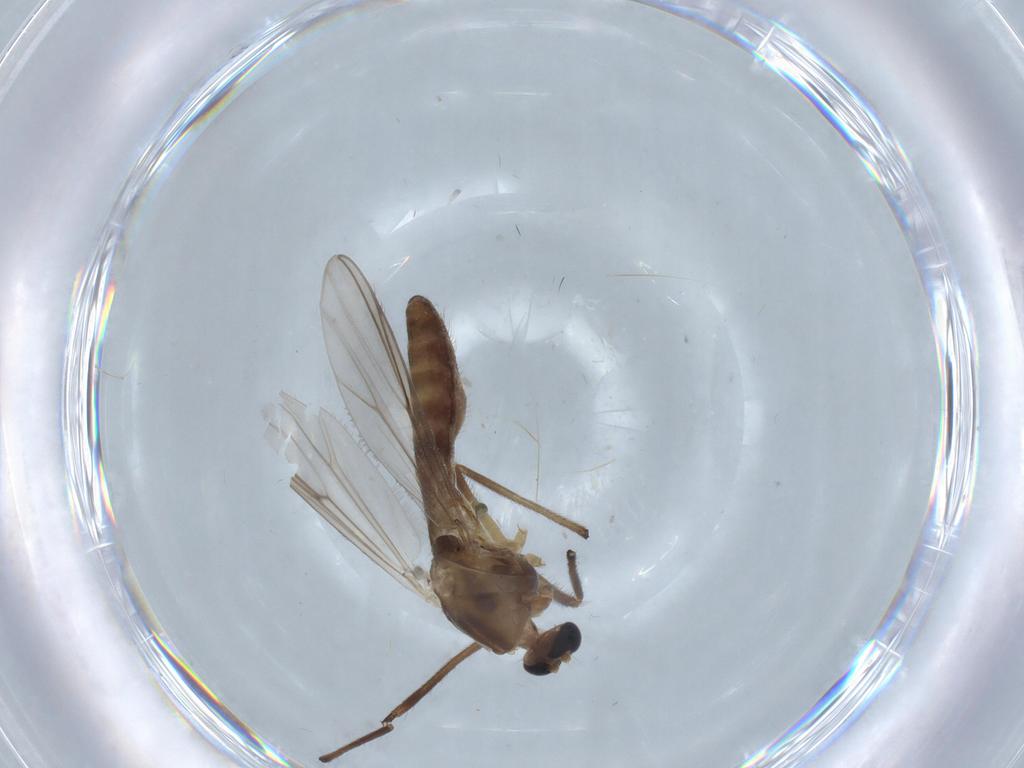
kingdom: Animalia
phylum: Arthropoda
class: Insecta
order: Diptera
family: Chironomidae
